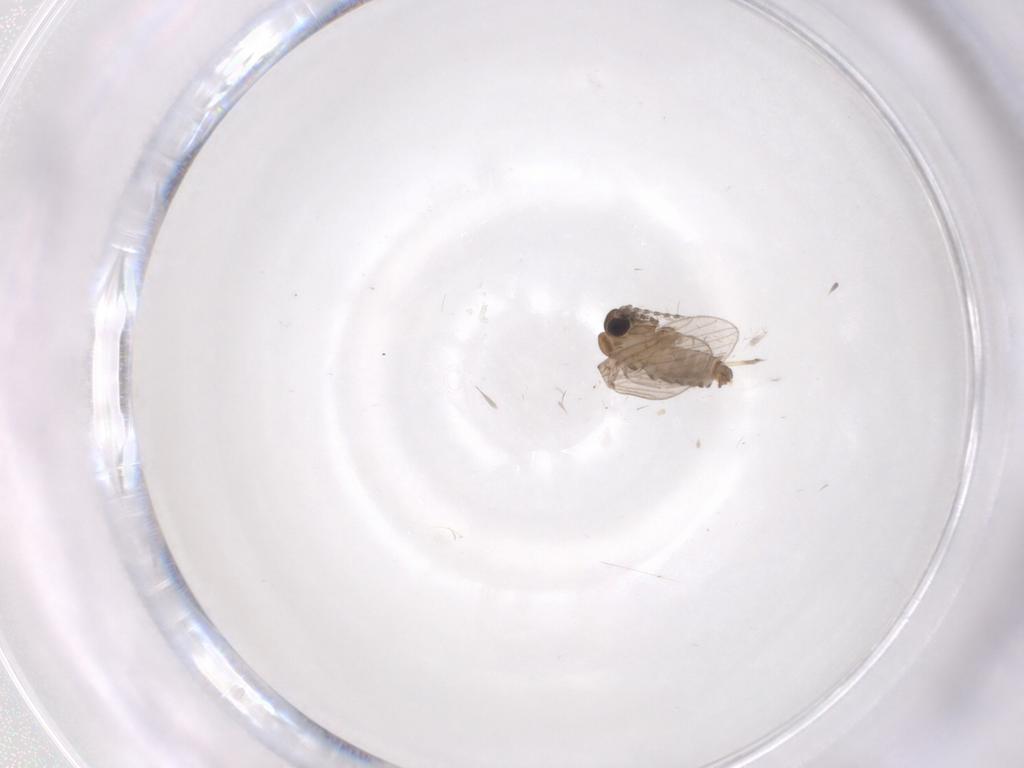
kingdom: Animalia
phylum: Arthropoda
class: Insecta
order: Diptera
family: Chironomidae
